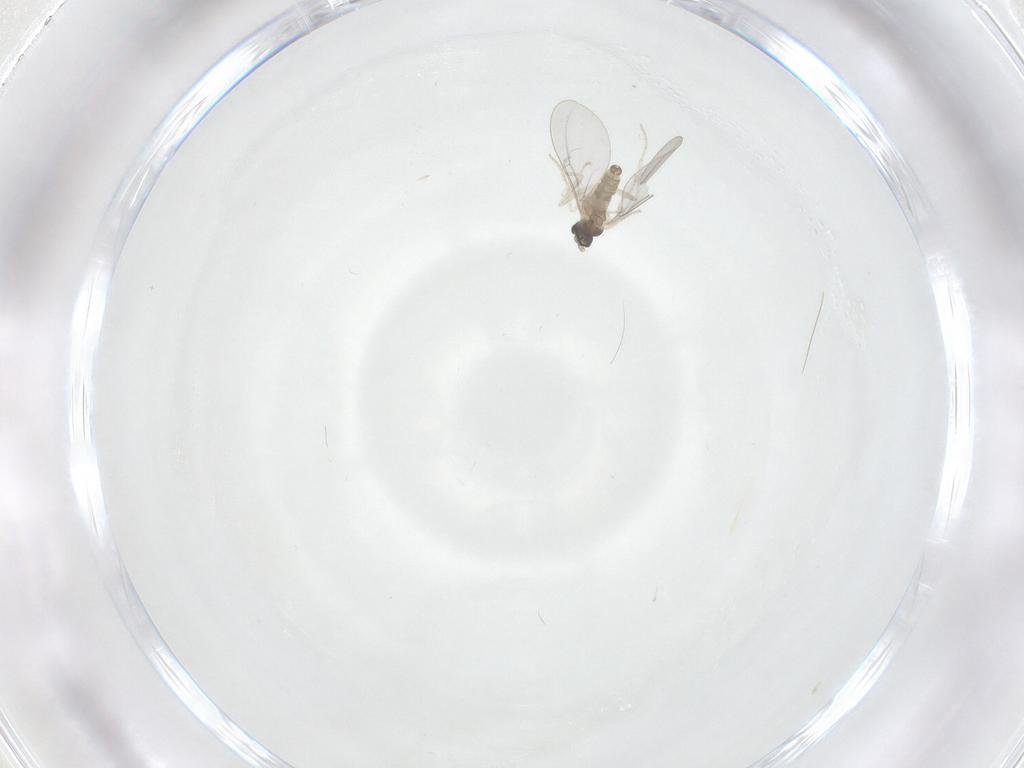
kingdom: Animalia
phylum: Arthropoda
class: Insecta
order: Diptera
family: Cecidomyiidae
